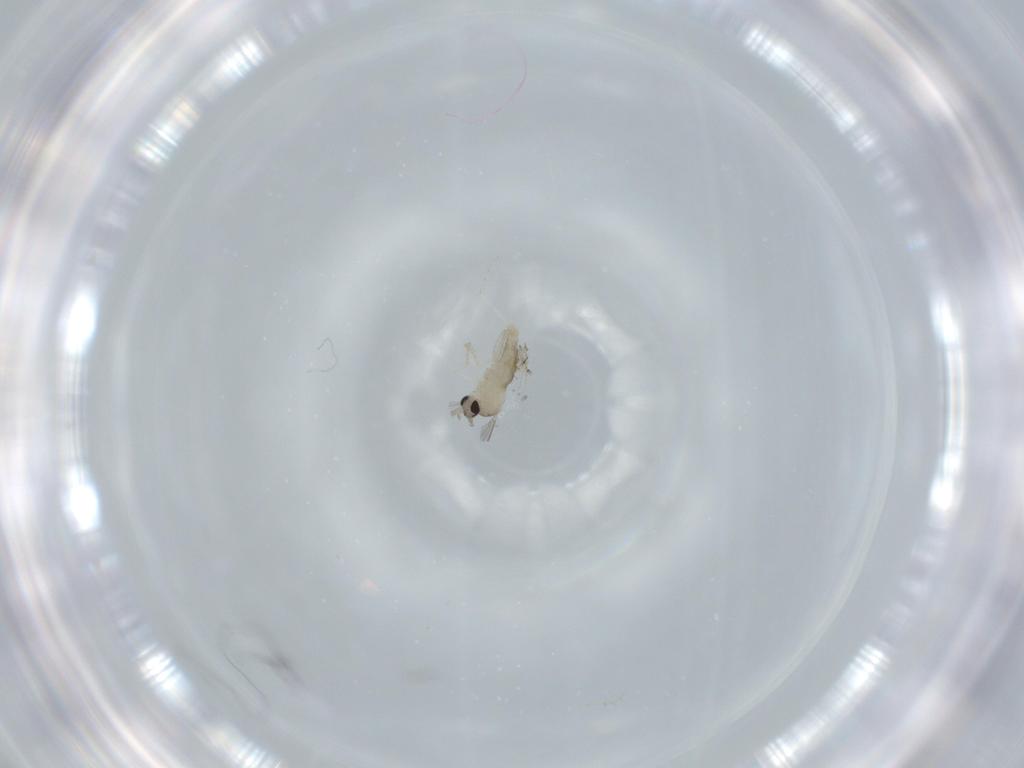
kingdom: Animalia
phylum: Arthropoda
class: Insecta
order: Diptera
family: Cecidomyiidae
